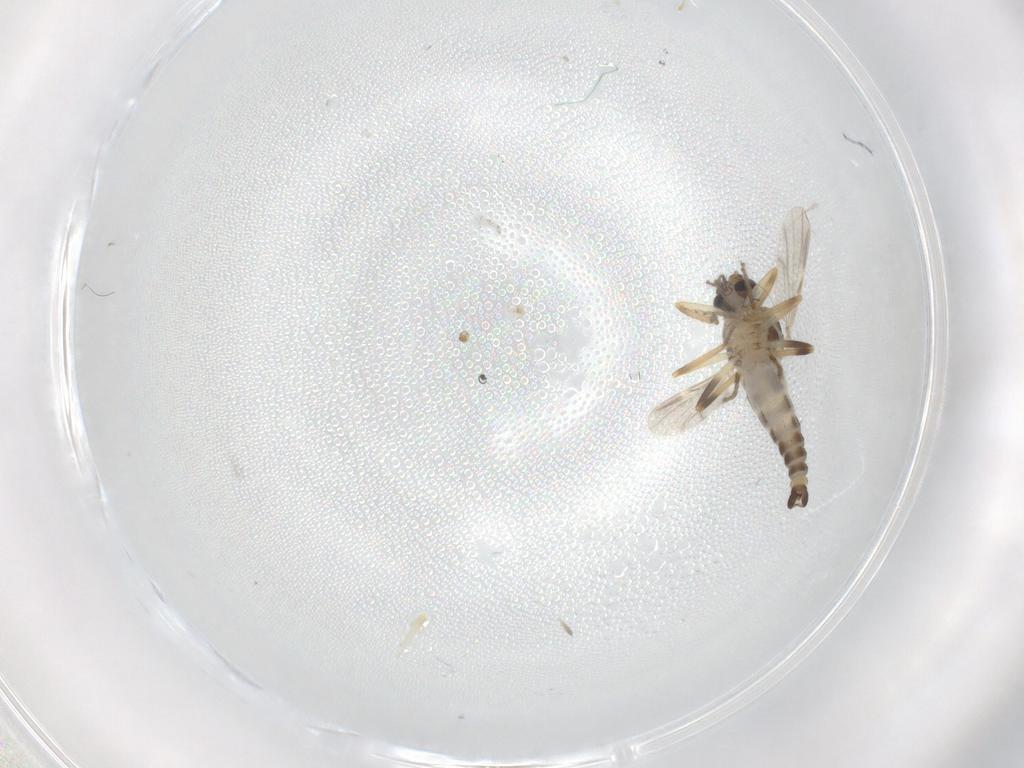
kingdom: Animalia
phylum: Arthropoda
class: Insecta
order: Diptera
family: Ceratopogonidae
